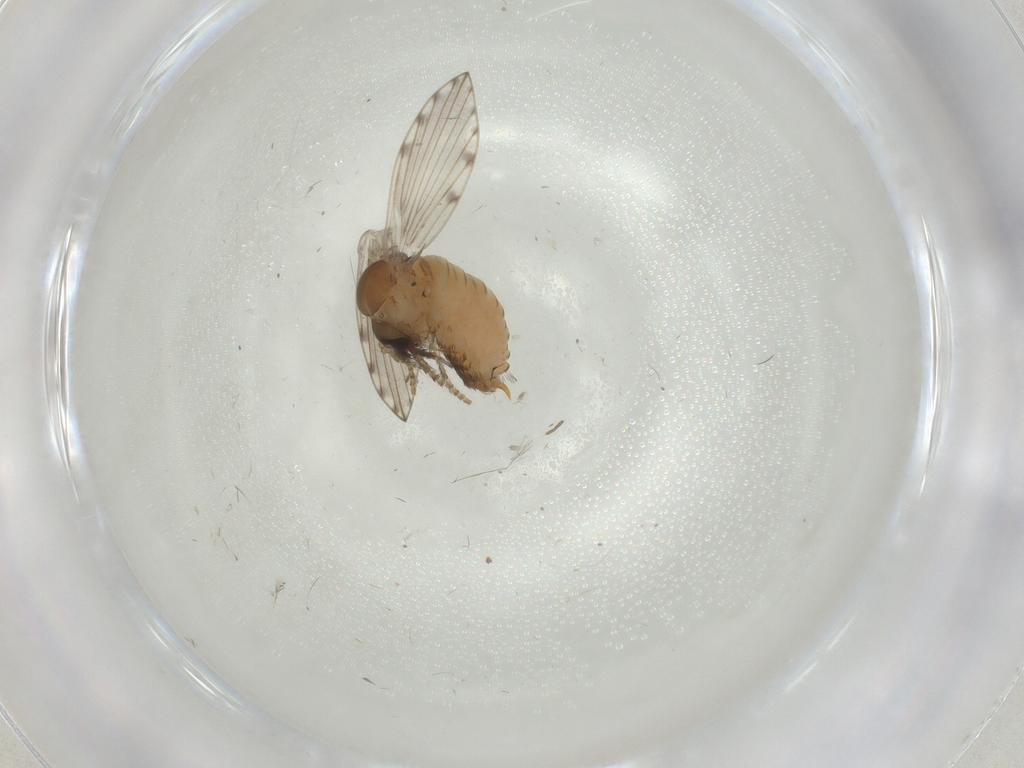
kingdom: Animalia
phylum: Arthropoda
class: Insecta
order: Diptera
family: Psychodidae
